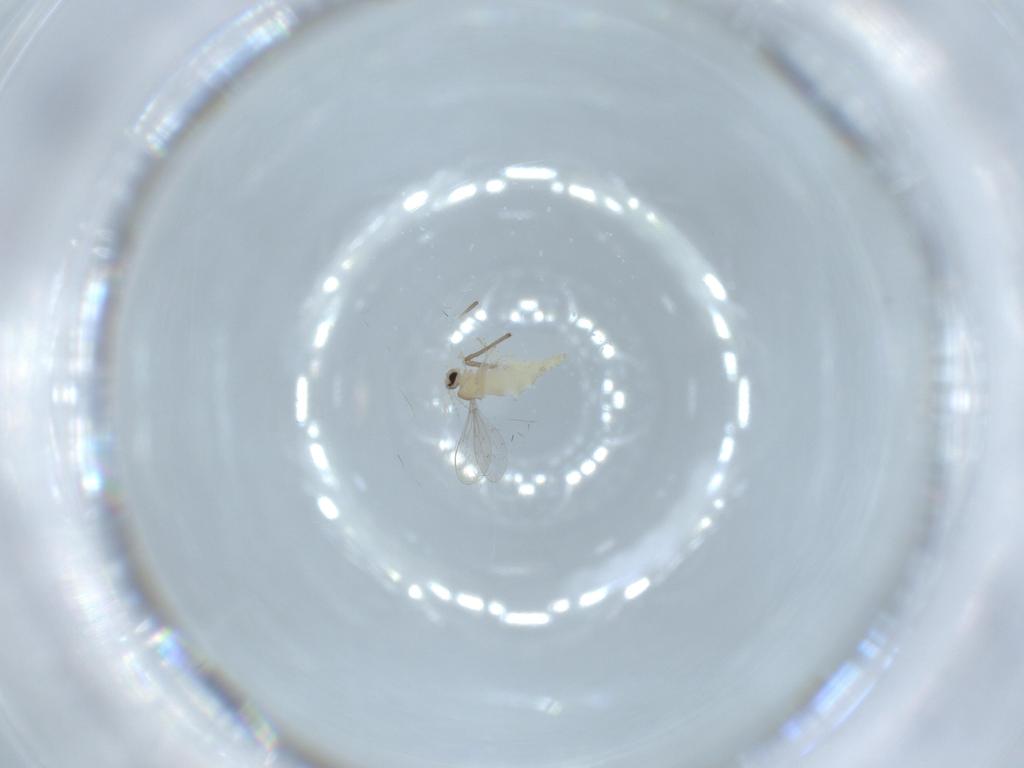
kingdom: Animalia
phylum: Arthropoda
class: Insecta
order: Diptera
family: Cecidomyiidae
